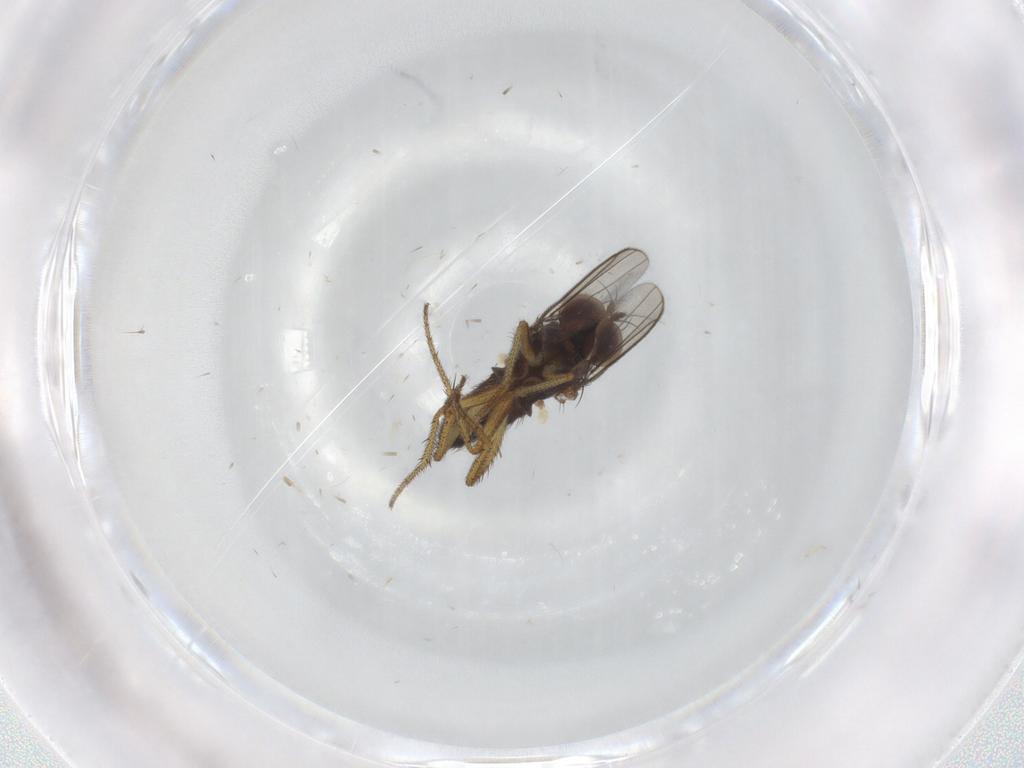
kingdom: Animalia
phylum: Arthropoda
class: Insecta
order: Diptera
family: Dolichopodidae
